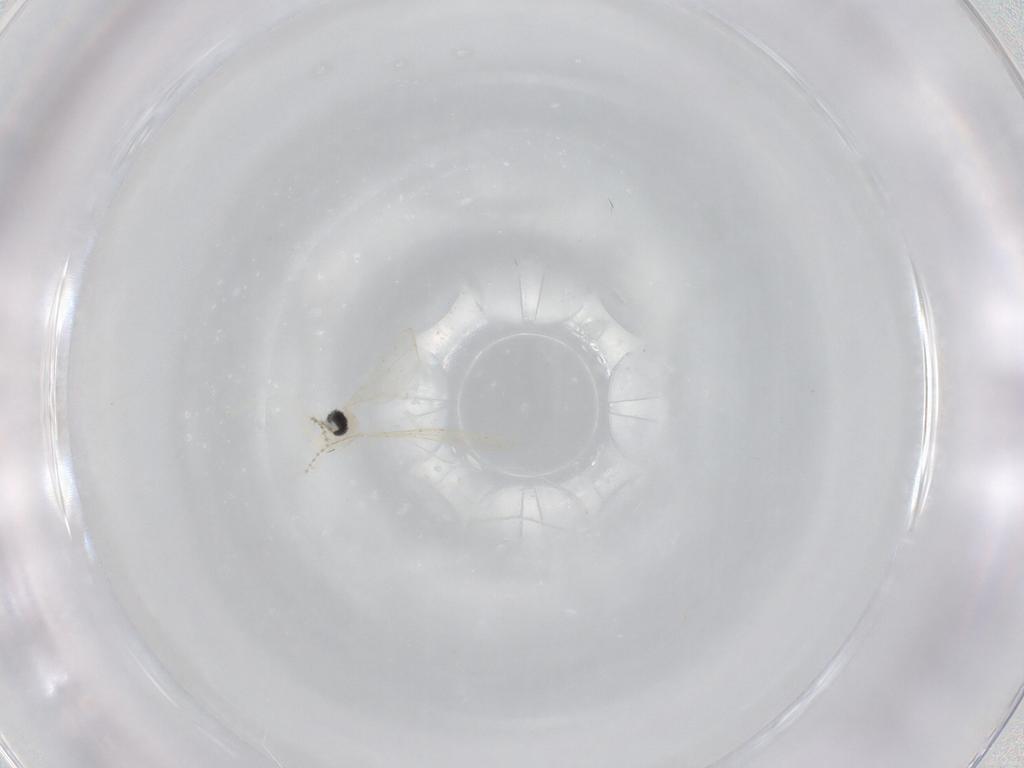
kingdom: Animalia
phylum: Arthropoda
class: Insecta
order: Diptera
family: Cecidomyiidae
